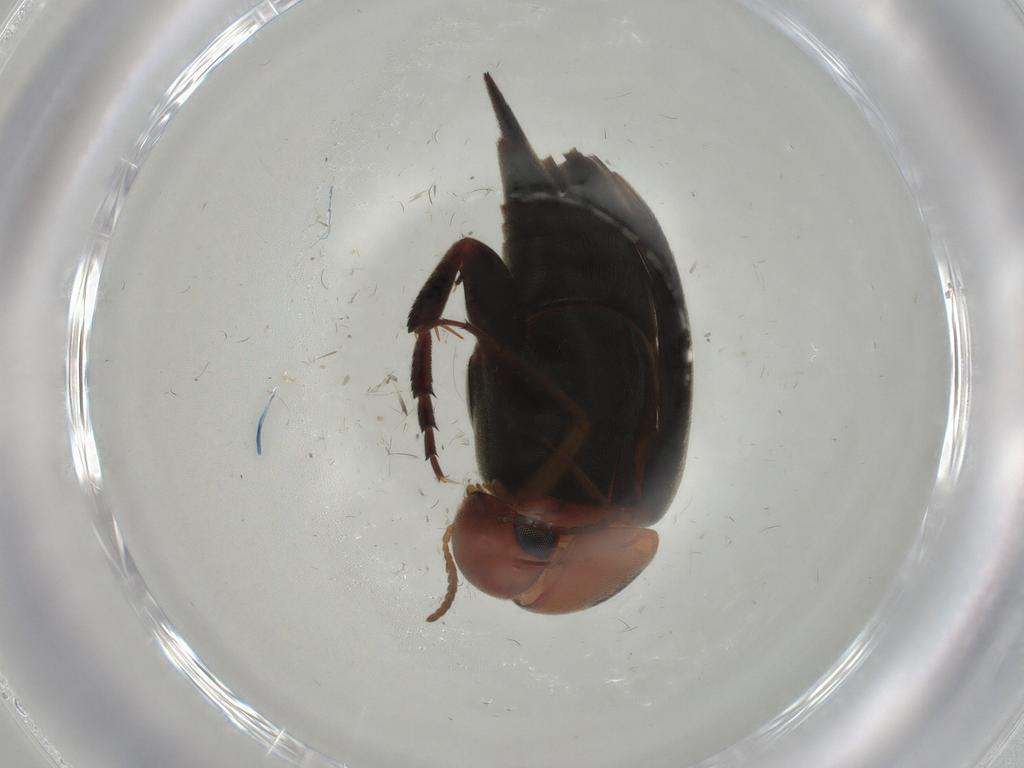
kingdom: Animalia
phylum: Arthropoda
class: Insecta
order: Coleoptera
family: Mordellidae
